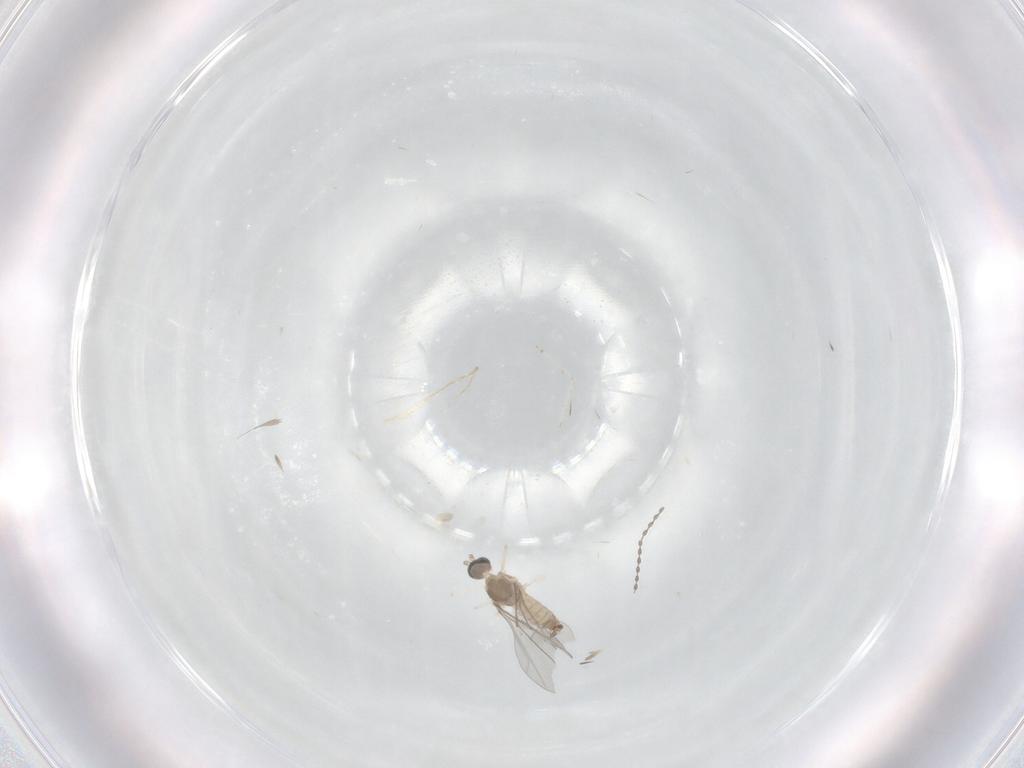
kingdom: Animalia
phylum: Arthropoda
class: Insecta
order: Diptera
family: Cecidomyiidae
